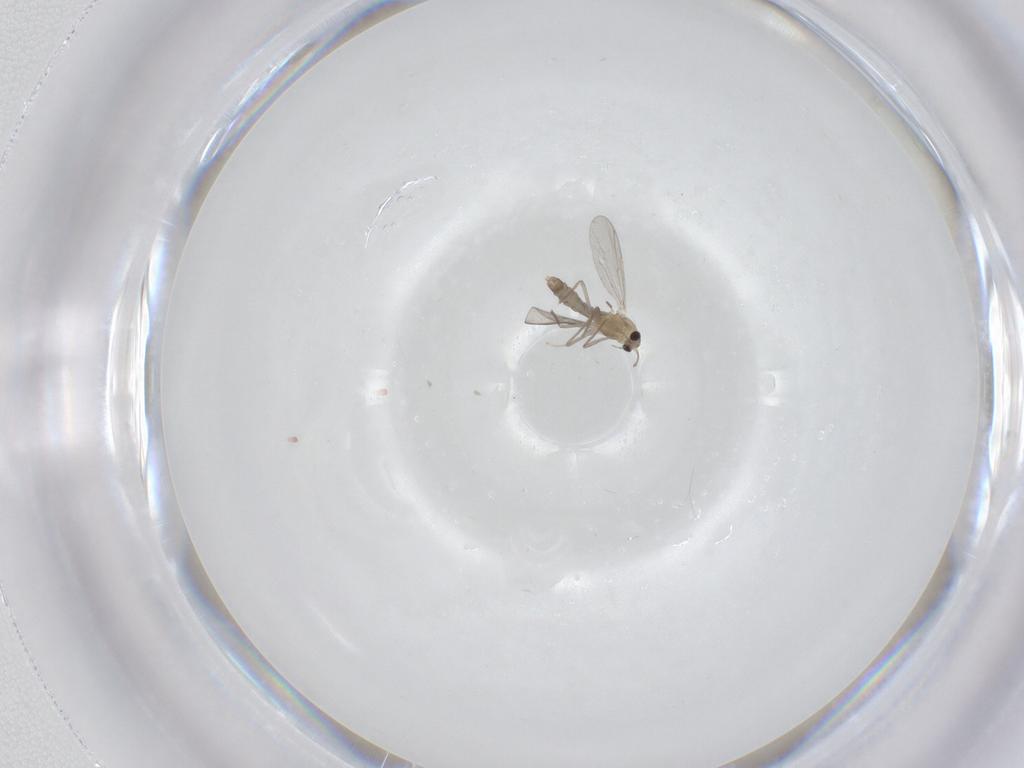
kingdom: Animalia
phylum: Arthropoda
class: Insecta
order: Diptera
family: Chironomidae
